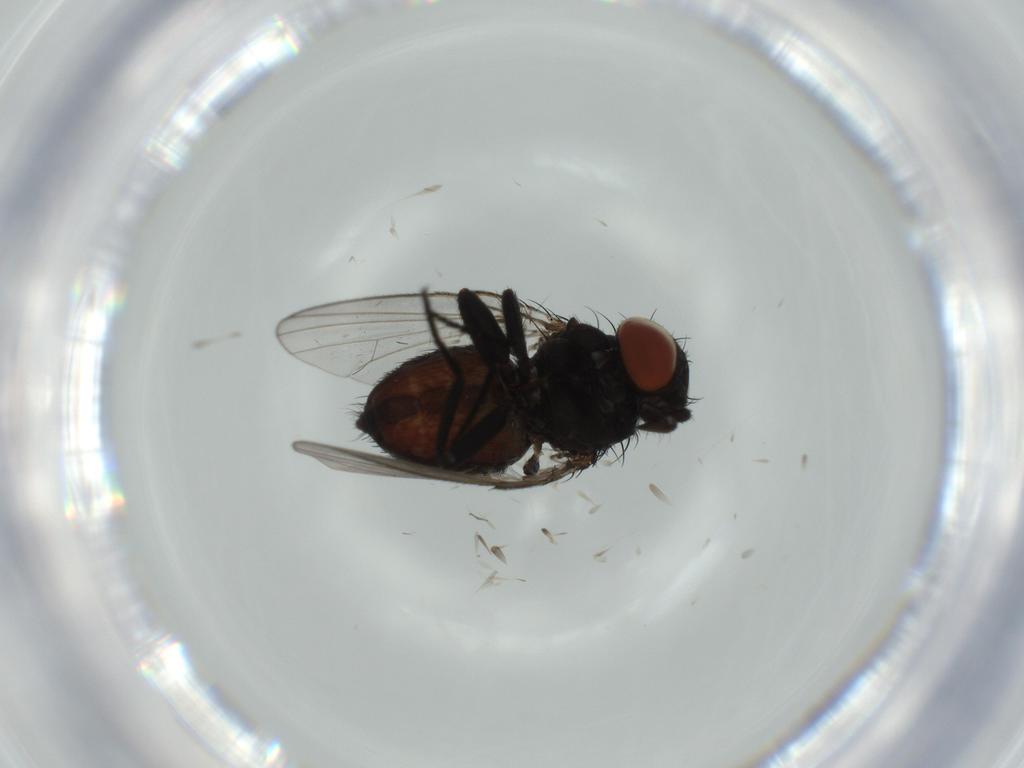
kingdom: Animalia
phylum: Arthropoda
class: Insecta
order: Diptera
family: Milichiidae
